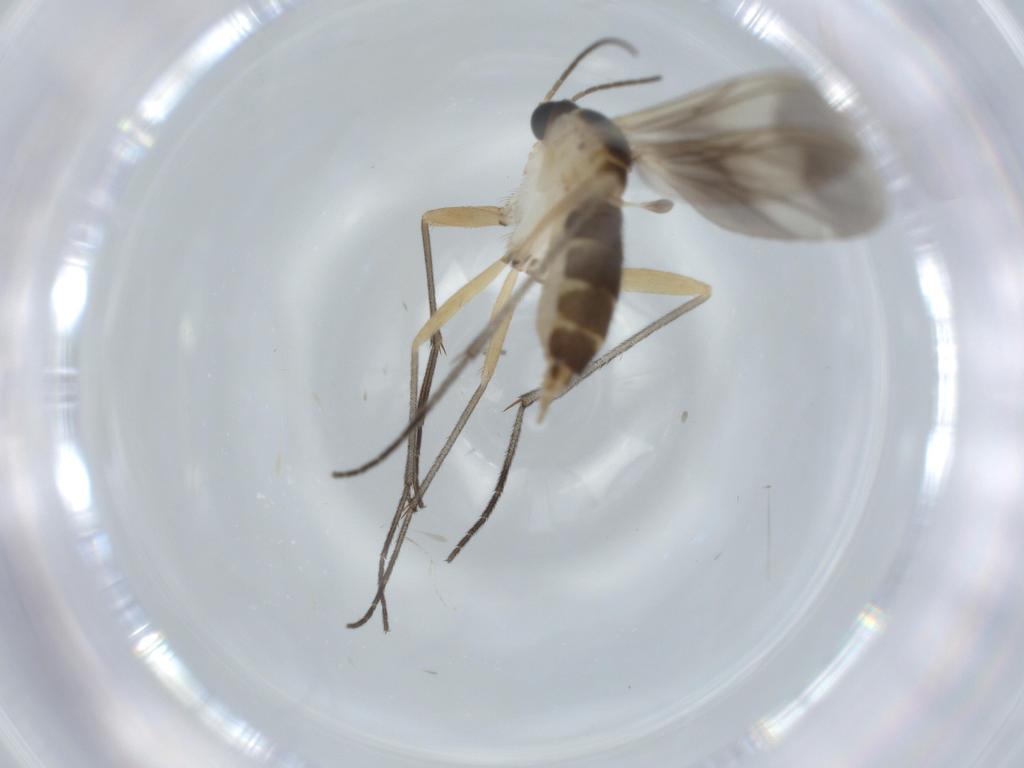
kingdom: Animalia
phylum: Arthropoda
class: Insecta
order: Diptera
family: Sciaridae
